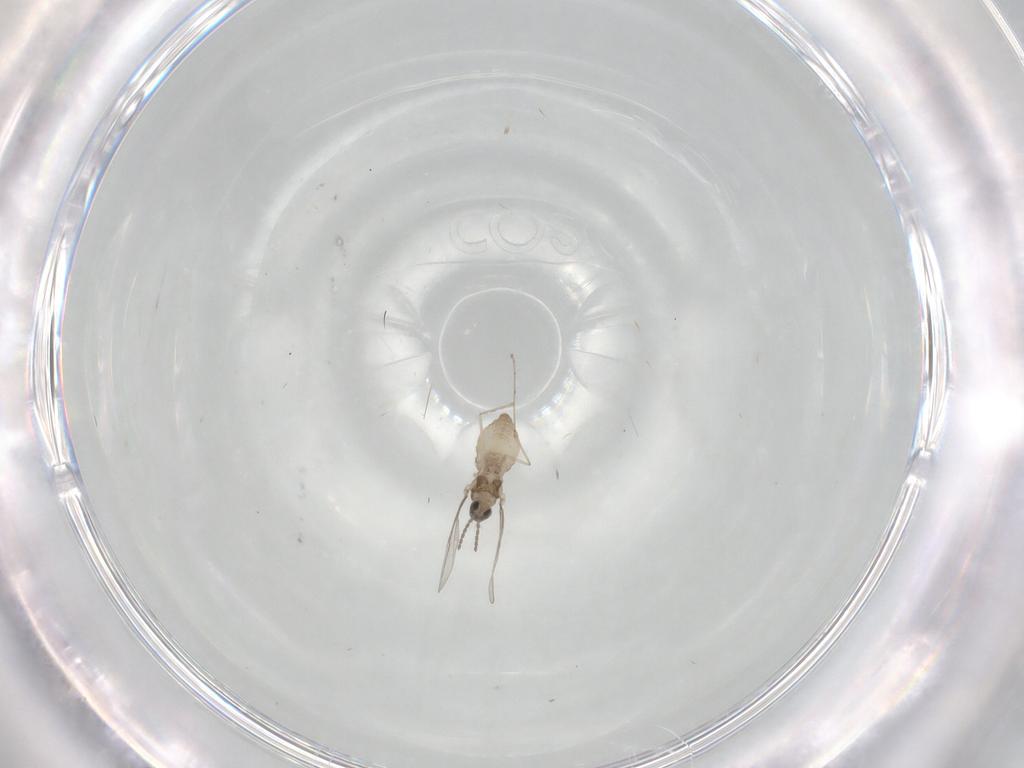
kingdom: Animalia
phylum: Arthropoda
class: Insecta
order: Diptera
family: Cecidomyiidae
